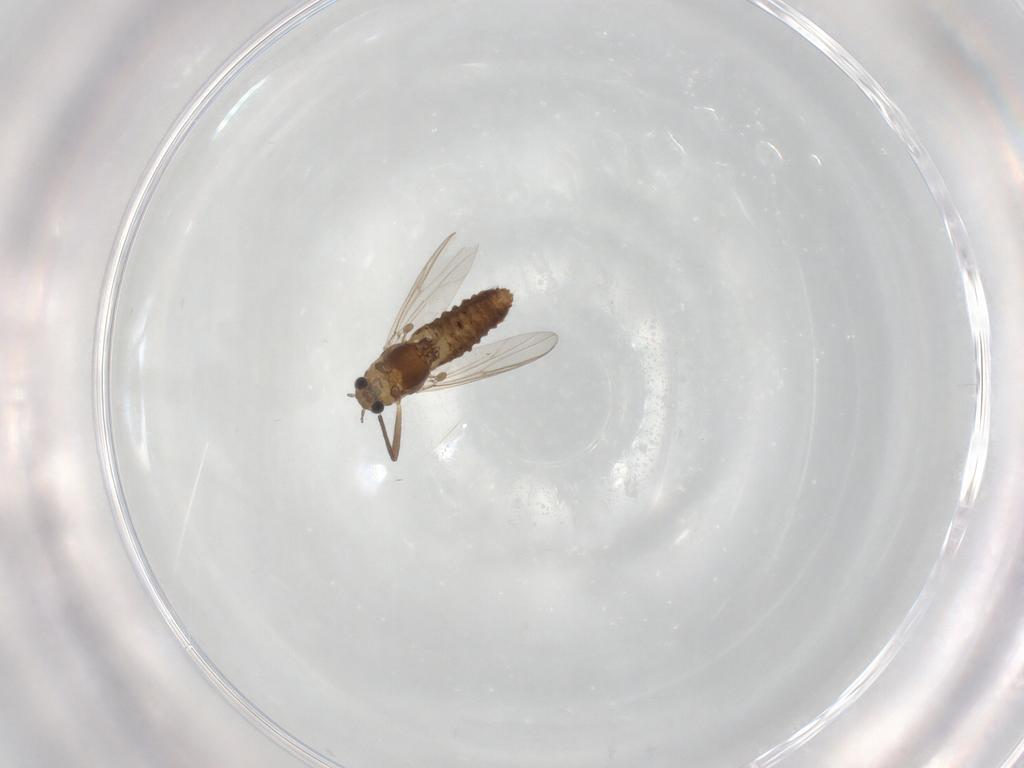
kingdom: Animalia
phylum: Arthropoda
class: Insecta
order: Diptera
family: Chironomidae
